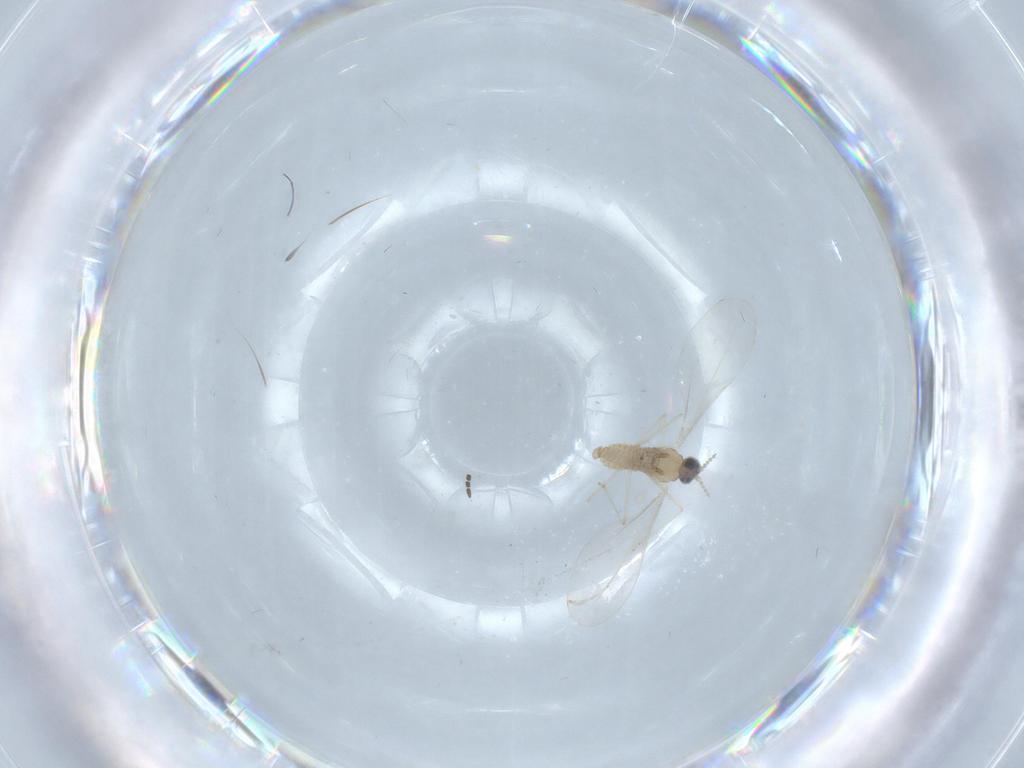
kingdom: Animalia
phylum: Arthropoda
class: Insecta
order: Diptera
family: Cecidomyiidae
